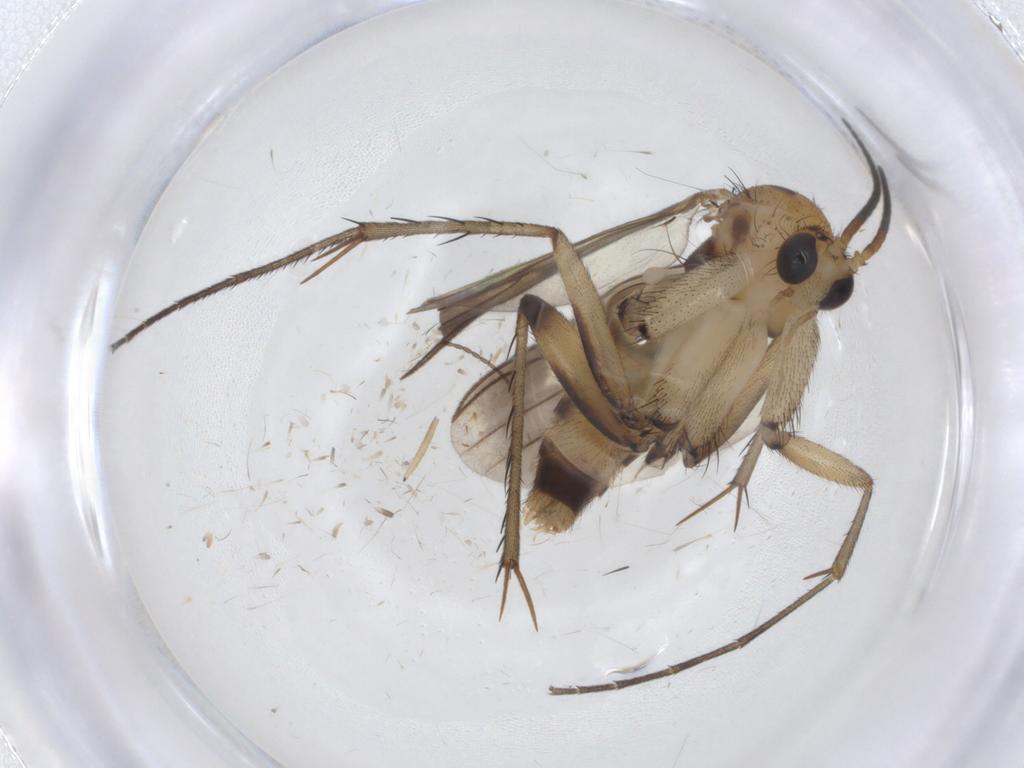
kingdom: Animalia
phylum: Arthropoda
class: Insecta
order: Diptera
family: Mycetophilidae
